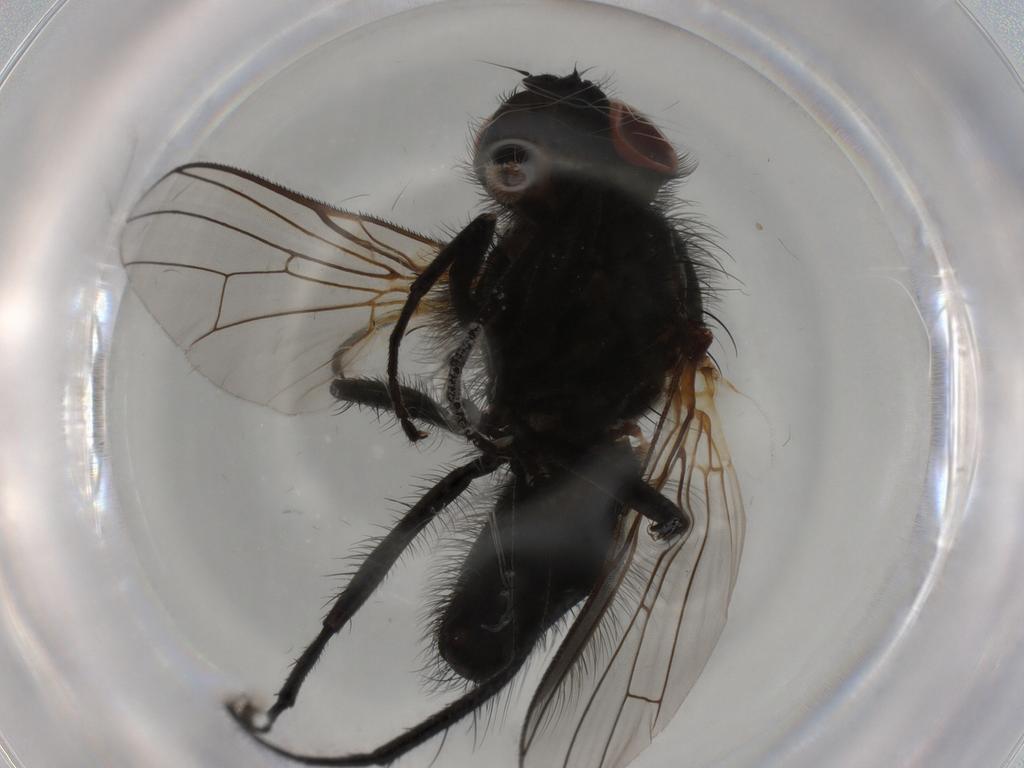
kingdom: Animalia
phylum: Arthropoda
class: Insecta
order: Diptera
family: Anthomyiidae
